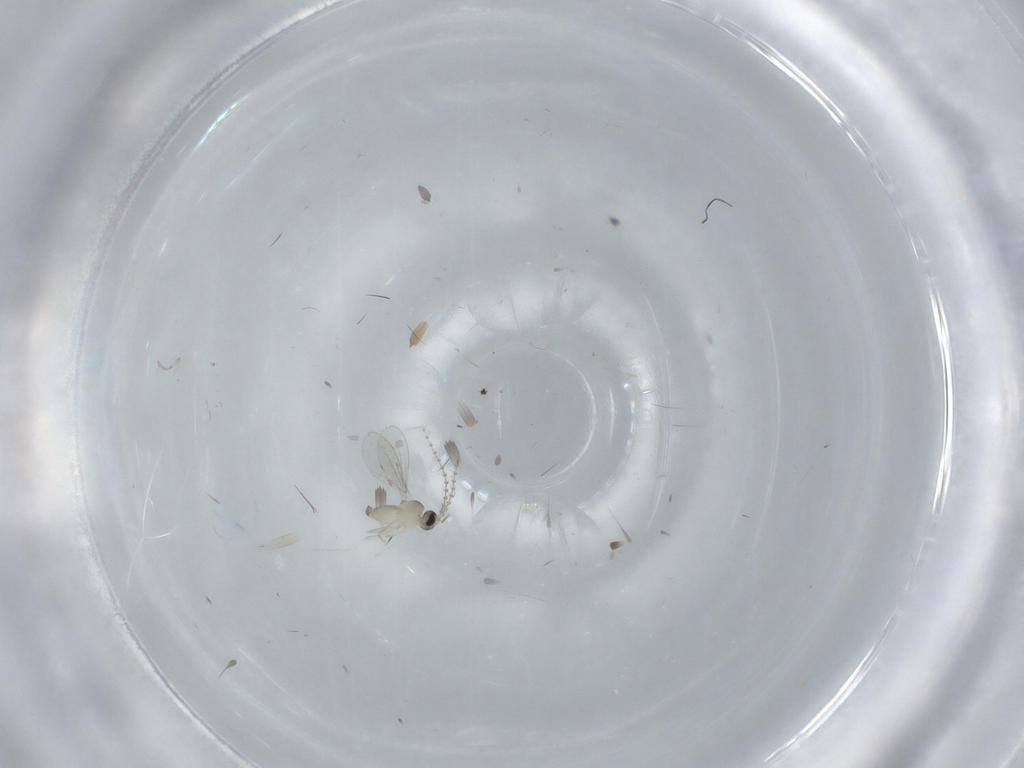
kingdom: Animalia
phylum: Arthropoda
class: Insecta
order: Diptera
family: Cecidomyiidae
